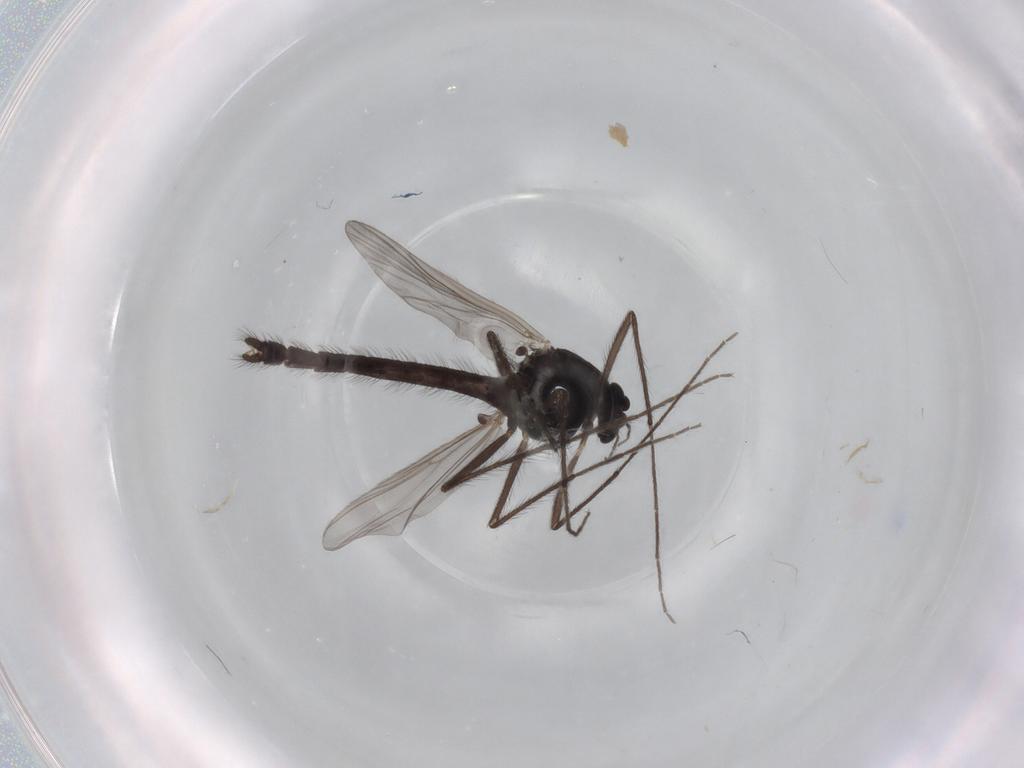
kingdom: Animalia
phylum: Arthropoda
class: Insecta
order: Diptera
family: Chironomidae
